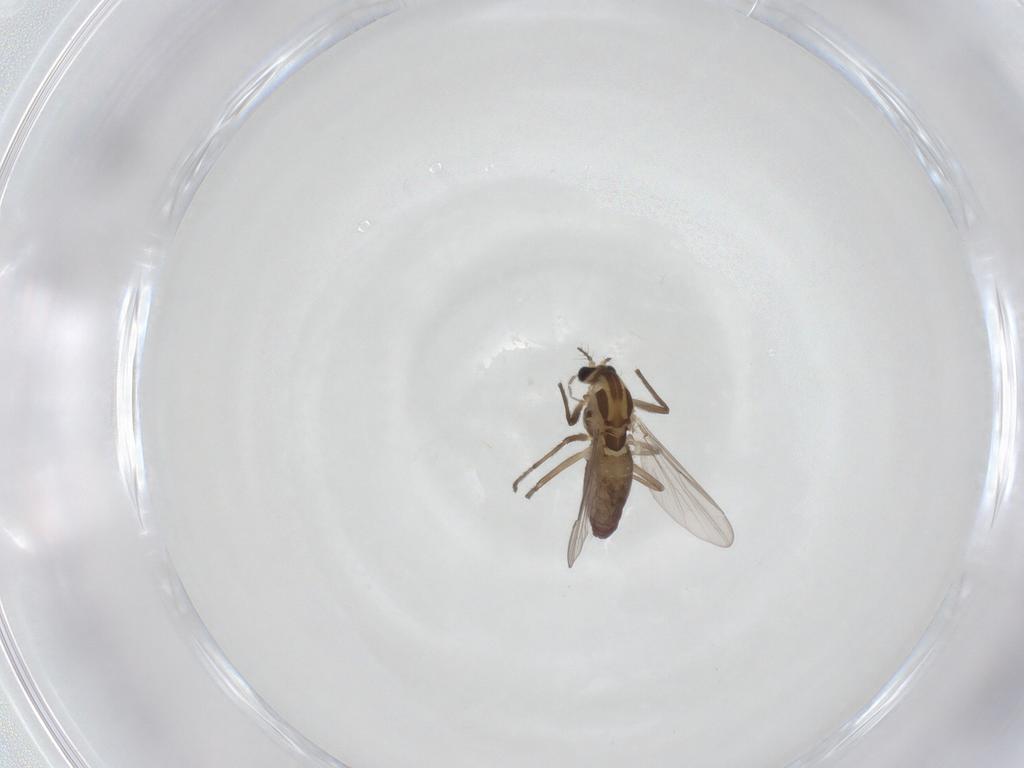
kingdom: Animalia
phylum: Arthropoda
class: Insecta
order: Diptera
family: Chironomidae
